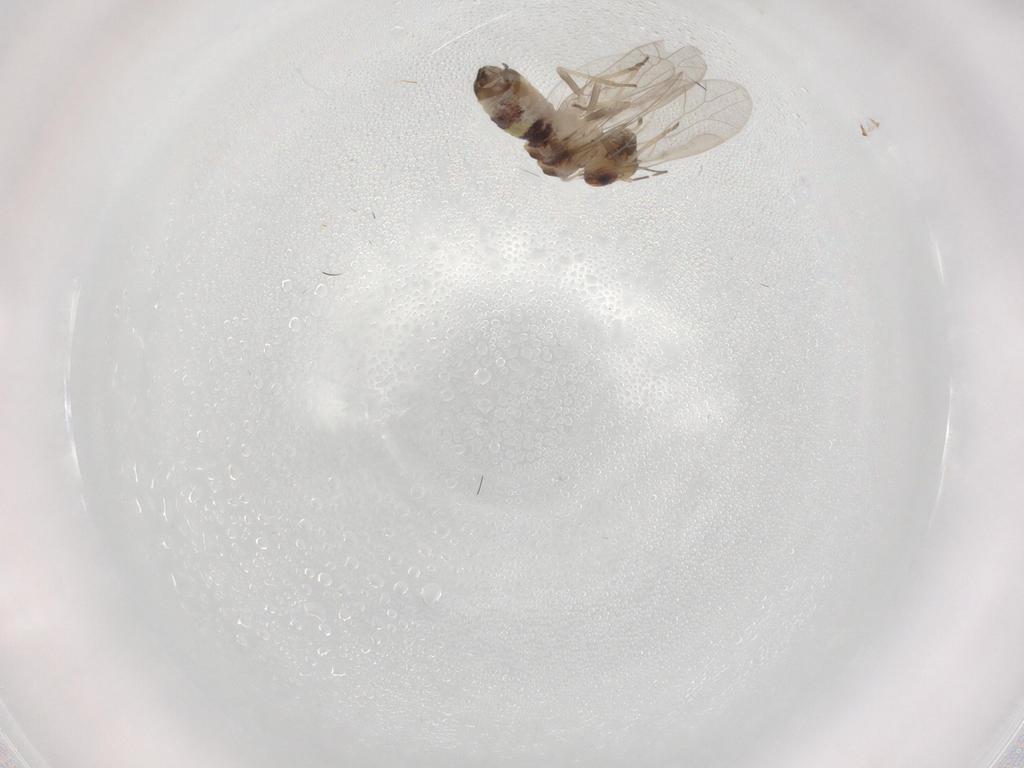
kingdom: Animalia
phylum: Arthropoda
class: Insecta
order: Psocodea
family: Ectopsocidae
